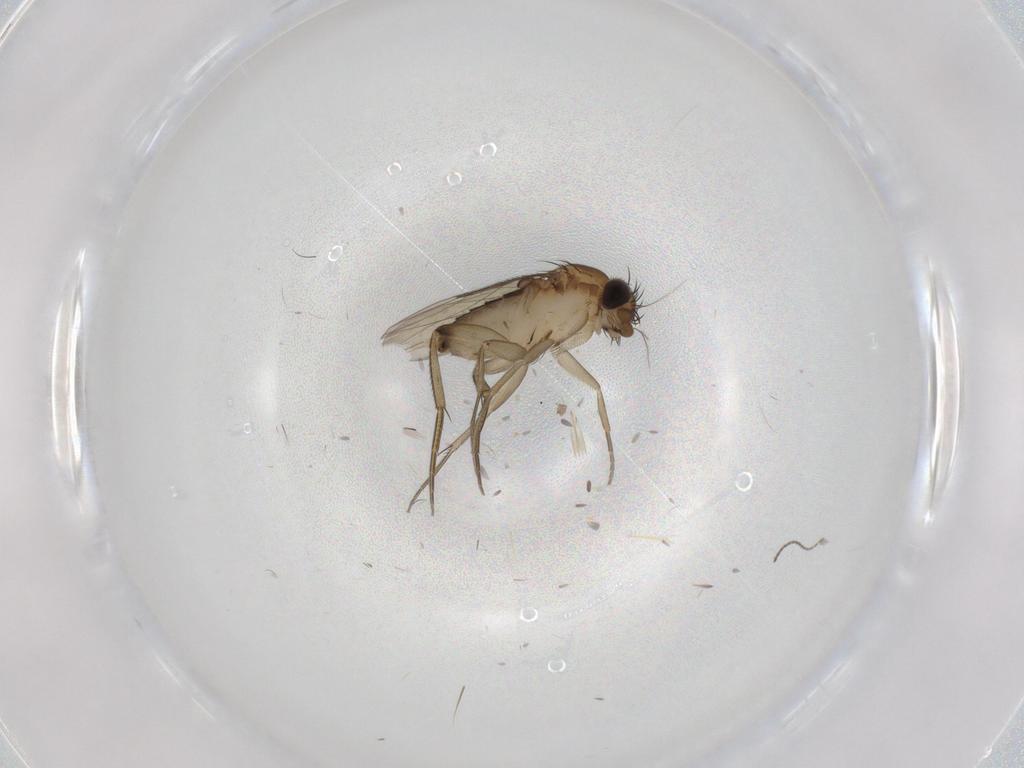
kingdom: Animalia
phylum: Arthropoda
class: Insecta
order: Diptera
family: Phoridae
